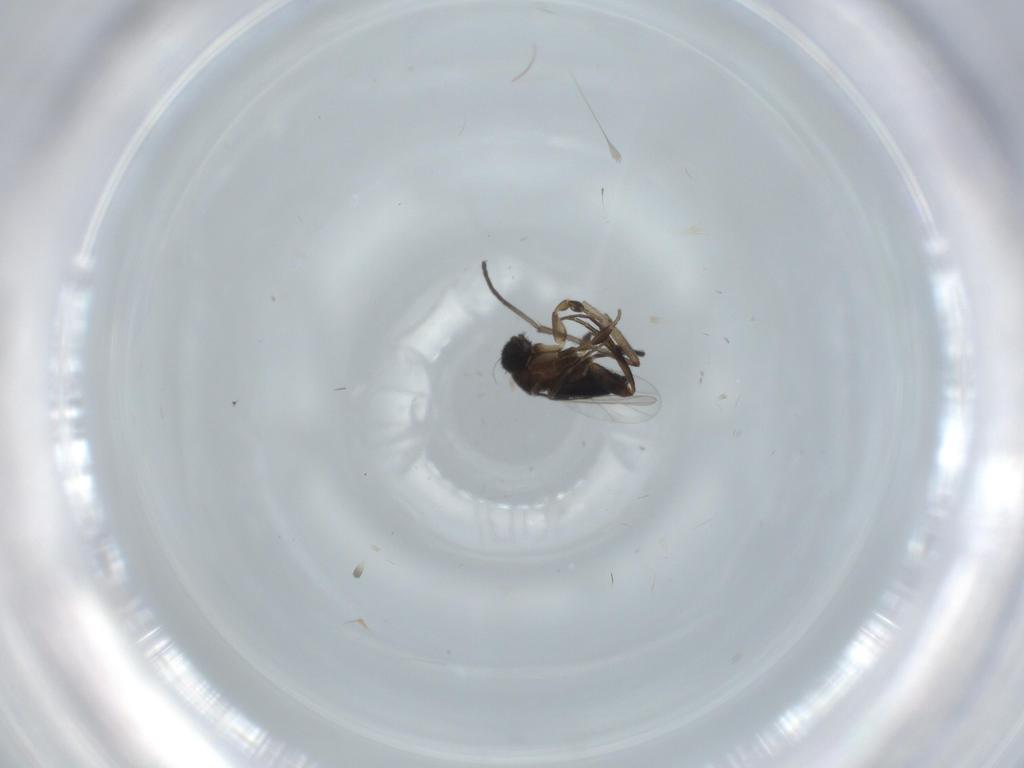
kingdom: Animalia
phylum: Arthropoda
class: Insecta
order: Diptera
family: Phoridae
